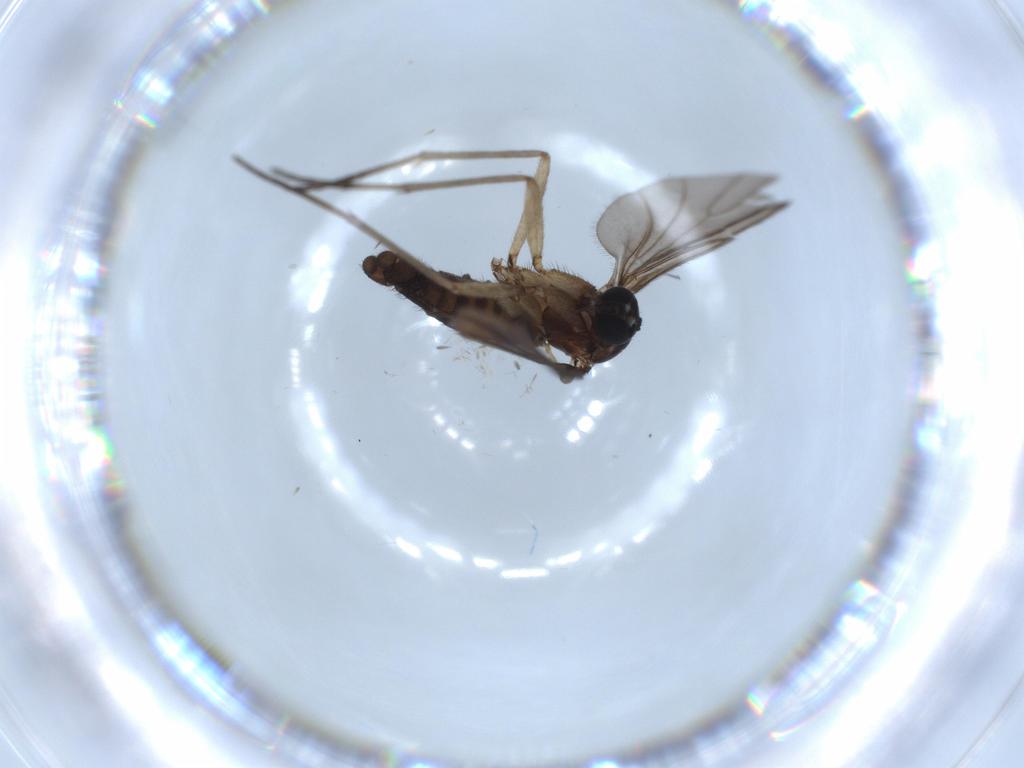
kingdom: Animalia
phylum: Arthropoda
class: Insecta
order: Diptera
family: Sciaridae
